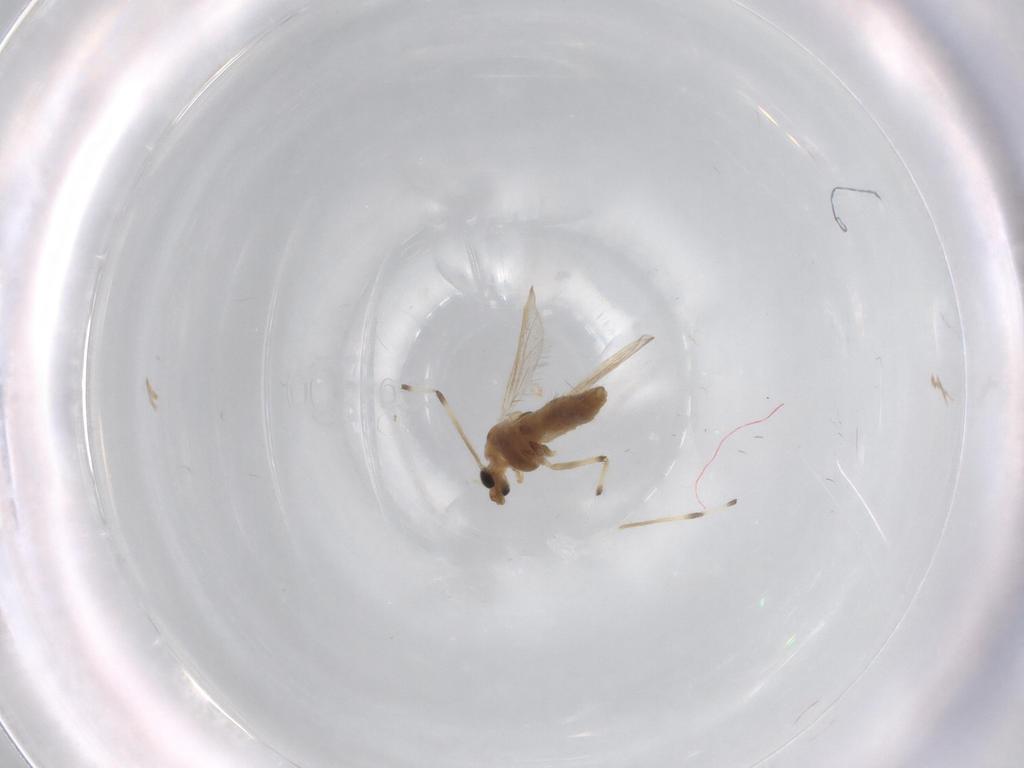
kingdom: Animalia
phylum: Arthropoda
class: Insecta
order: Diptera
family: Chironomidae
